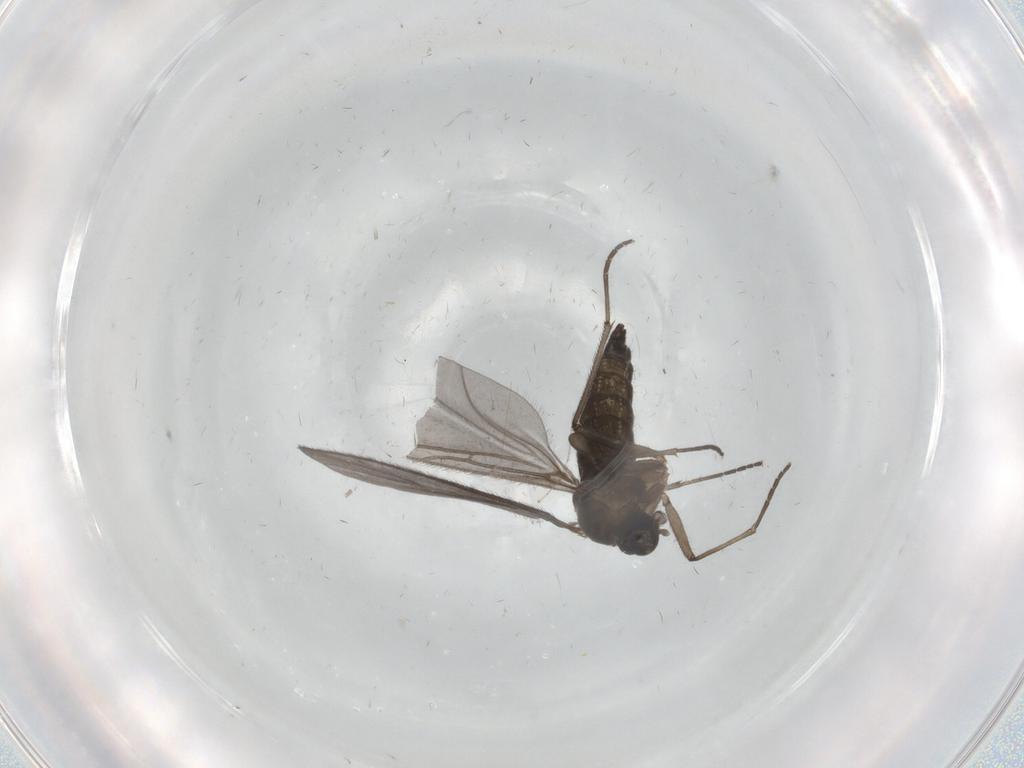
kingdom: Animalia
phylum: Arthropoda
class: Insecta
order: Diptera
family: Sciaridae
